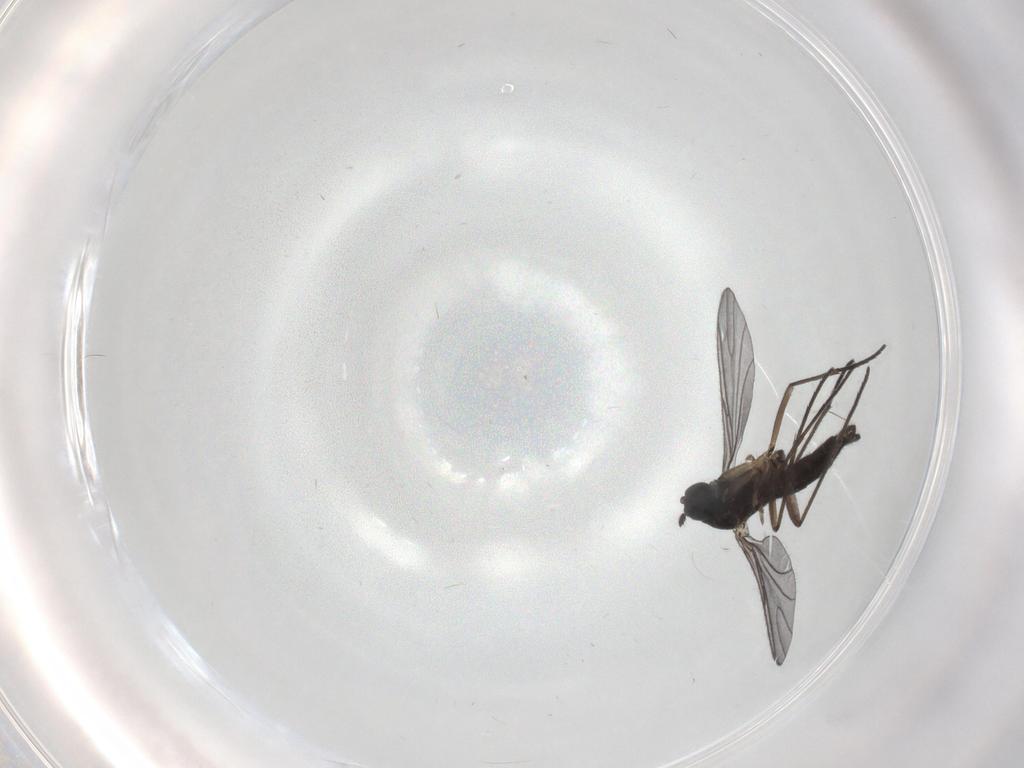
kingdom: Animalia
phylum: Arthropoda
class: Insecta
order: Diptera
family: Sciaridae
